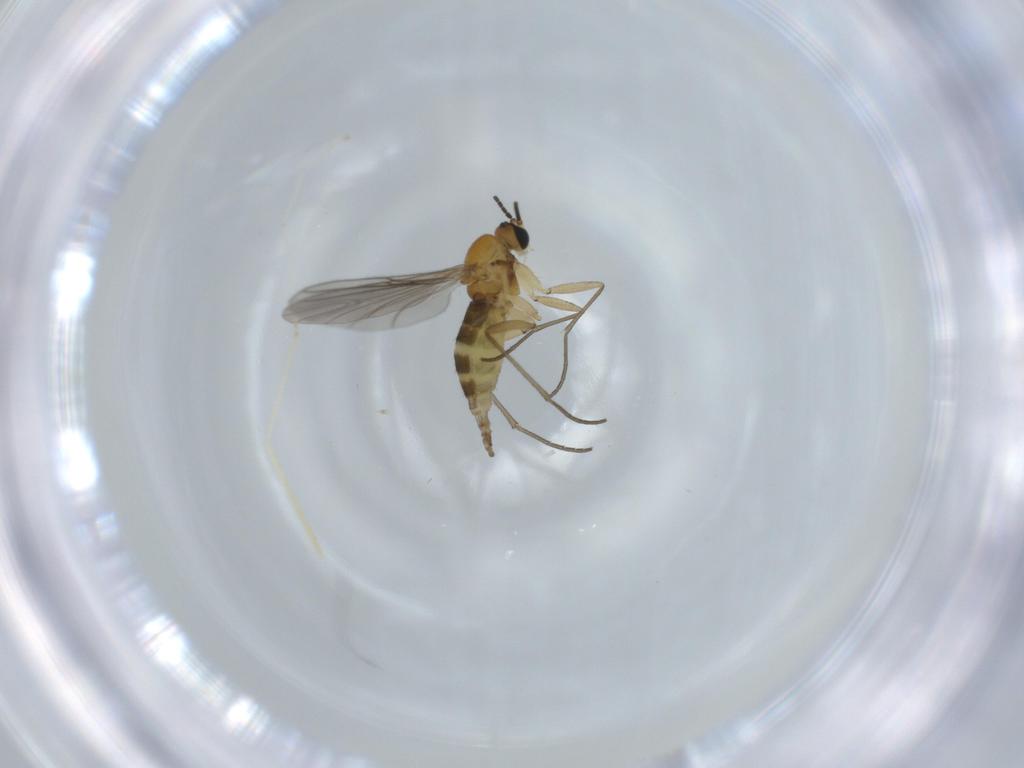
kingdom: Animalia
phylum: Arthropoda
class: Insecta
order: Diptera
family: Cecidomyiidae
